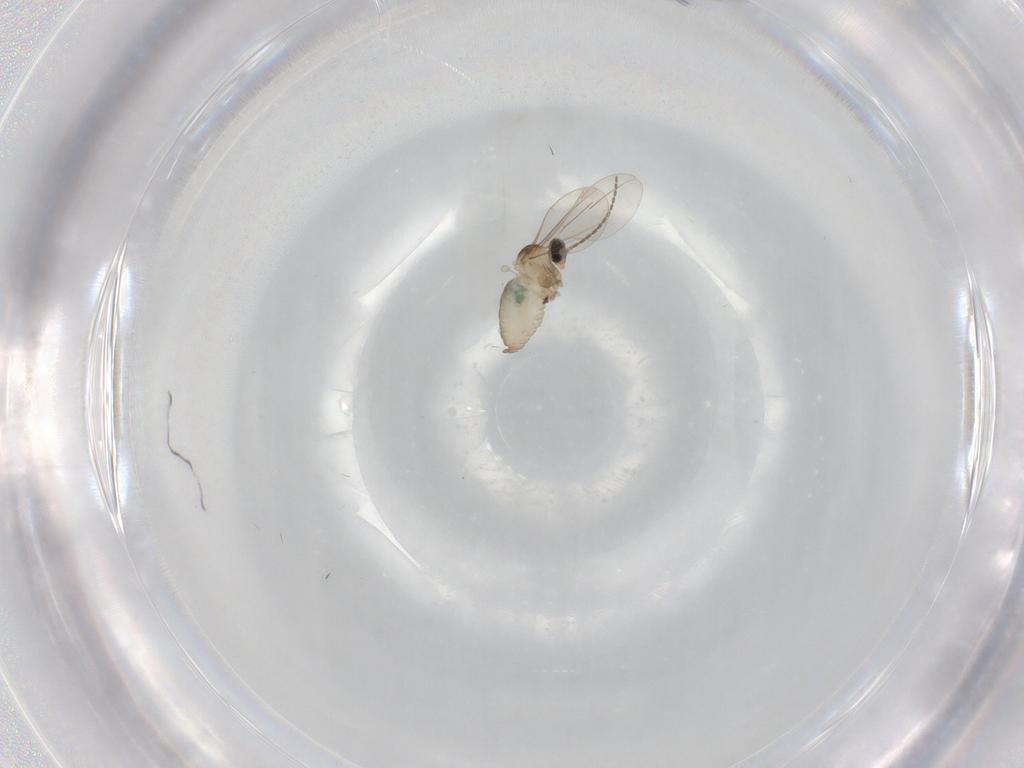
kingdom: Animalia
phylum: Arthropoda
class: Insecta
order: Diptera
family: Cecidomyiidae
